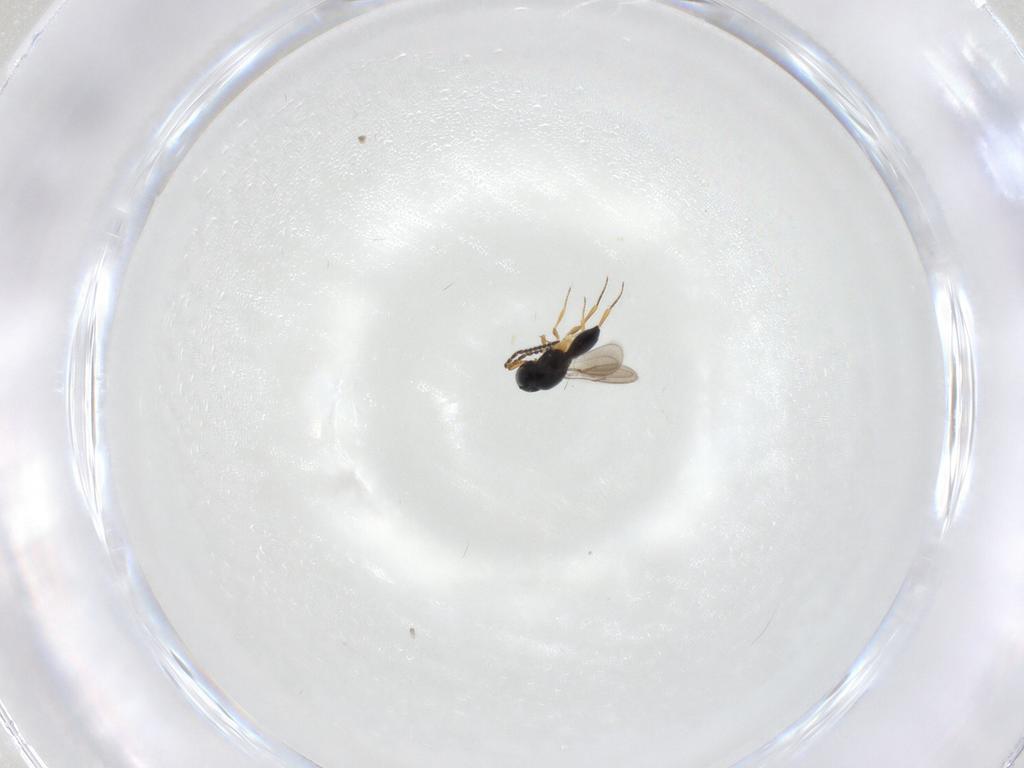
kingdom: Animalia
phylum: Arthropoda
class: Insecta
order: Hymenoptera
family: Scelionidae
